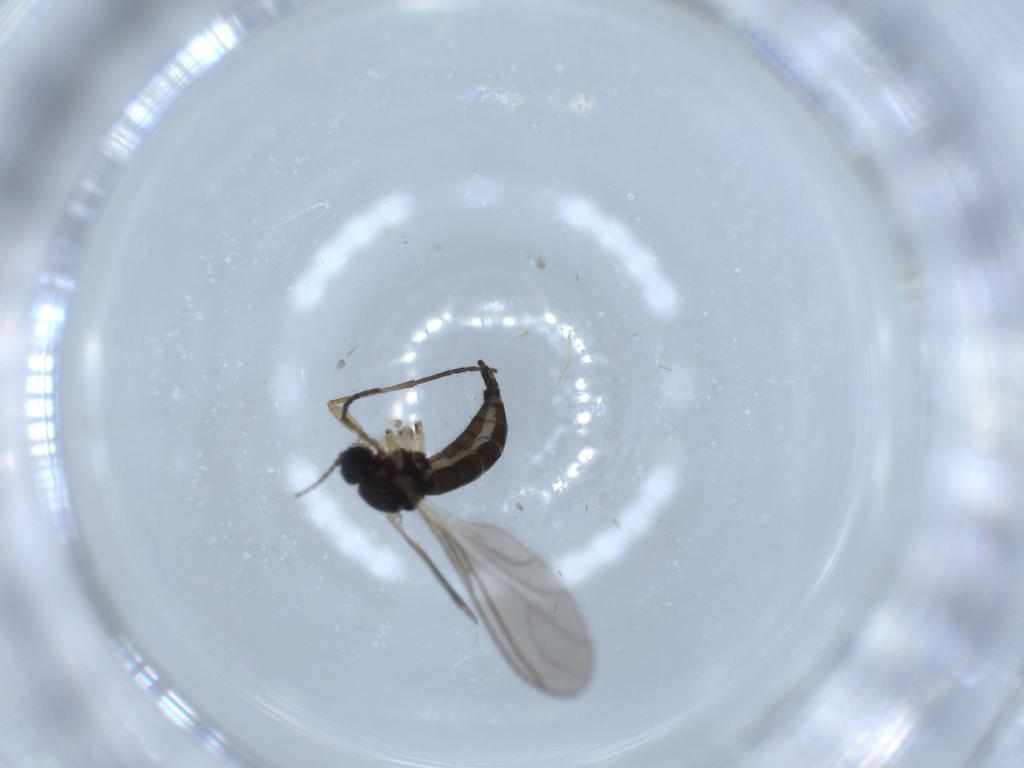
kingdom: Animalia
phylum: Arthropoda
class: Insecta
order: Diptera
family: Sciaridae
